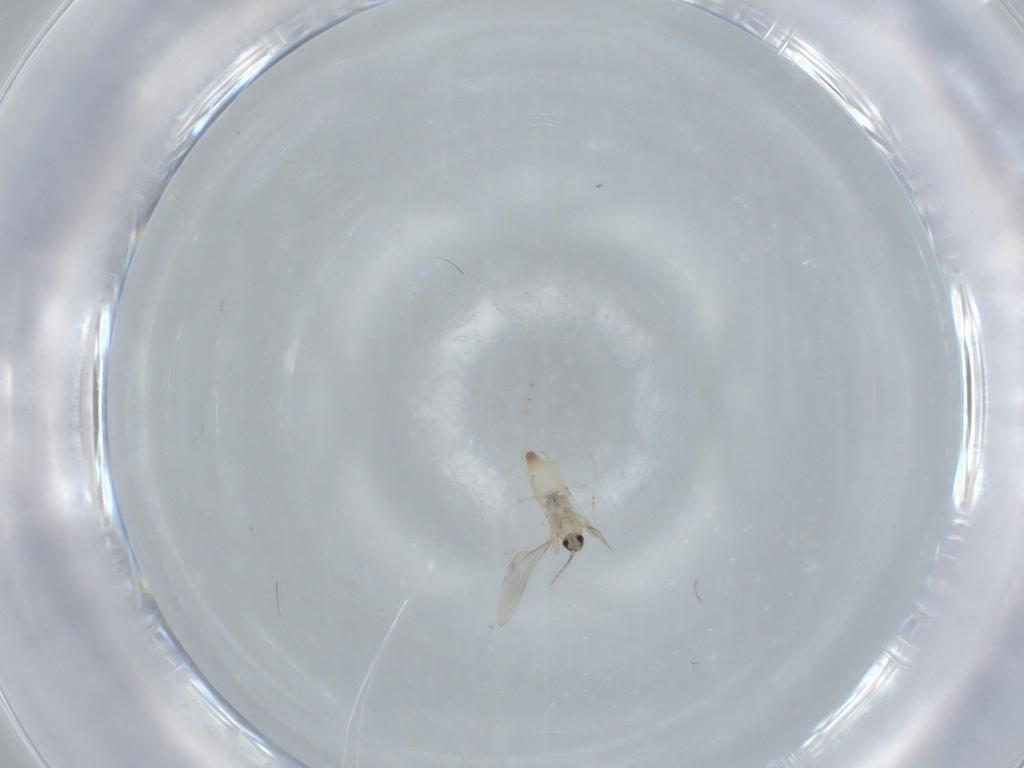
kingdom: Animalia
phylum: Arthropoda
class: Insecta
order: Diptera
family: Cecidomyiidae
